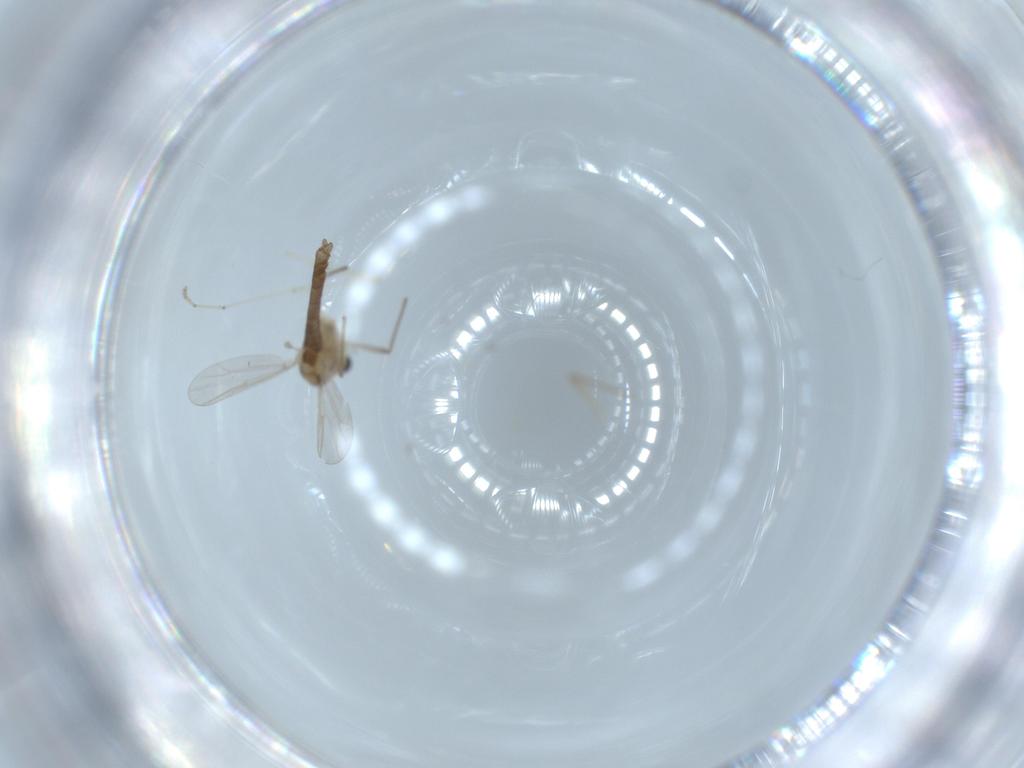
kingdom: Animalia
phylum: Arthropoda
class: Insecta
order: Diptera
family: Chironomidae
